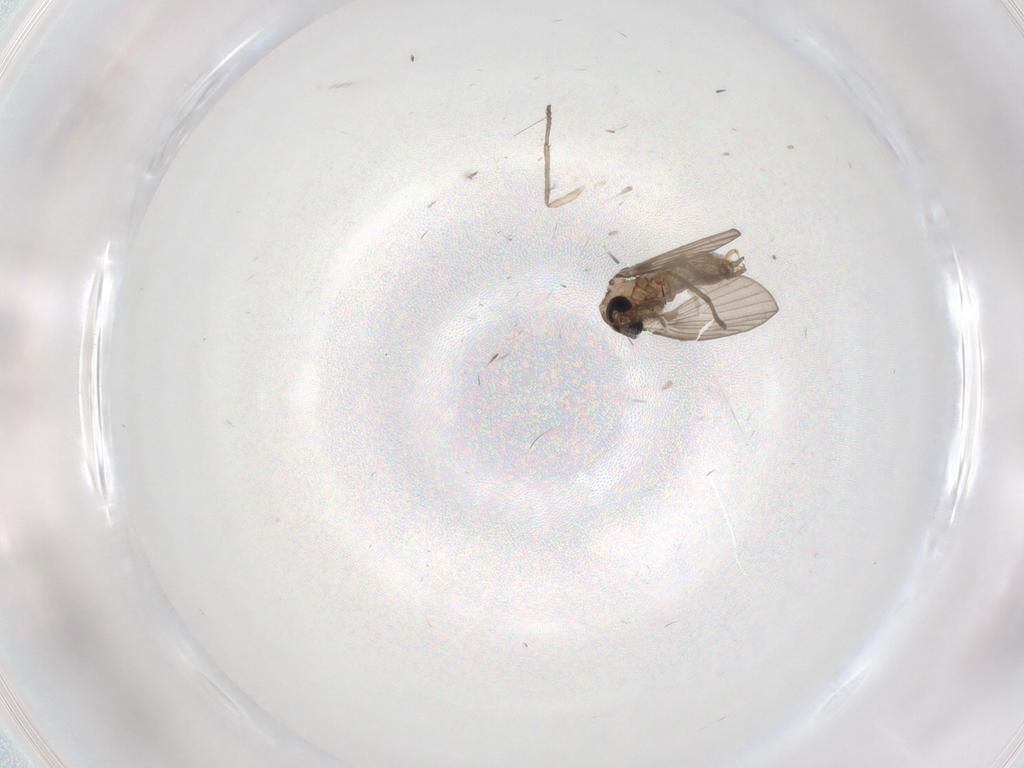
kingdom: Animalia
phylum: Arthropoda
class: Insecta
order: Diptera
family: Psychodidae
